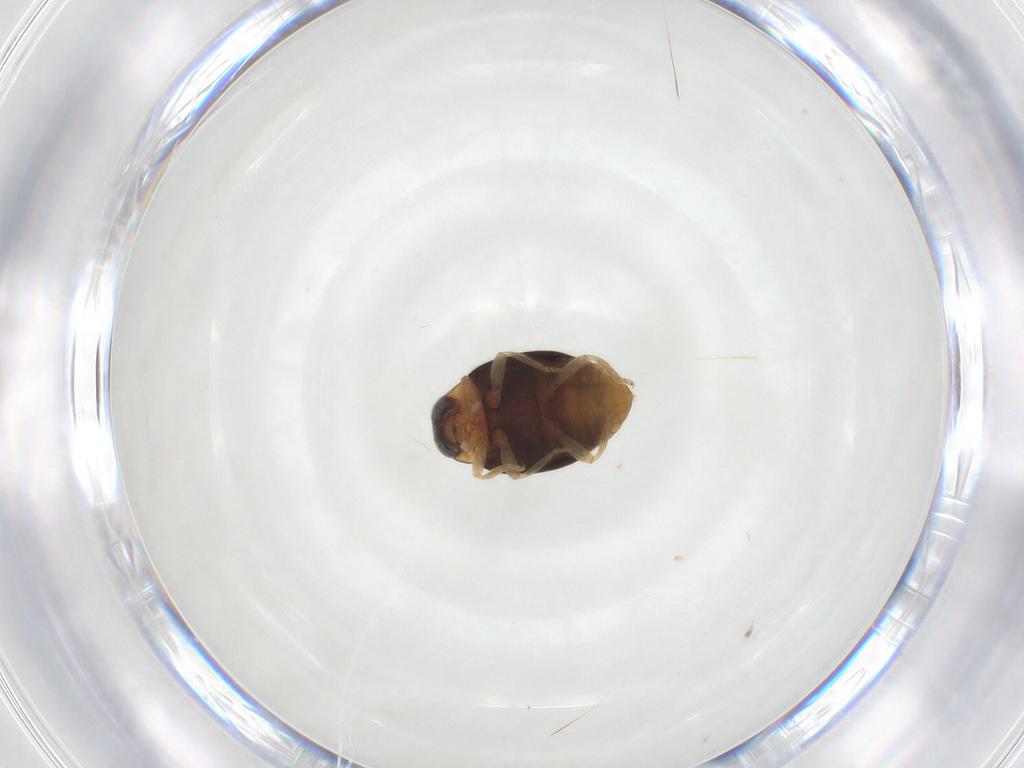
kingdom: Animalia
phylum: Arthropoda
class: Insecta
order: Coleoptera
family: Coccinellidae
